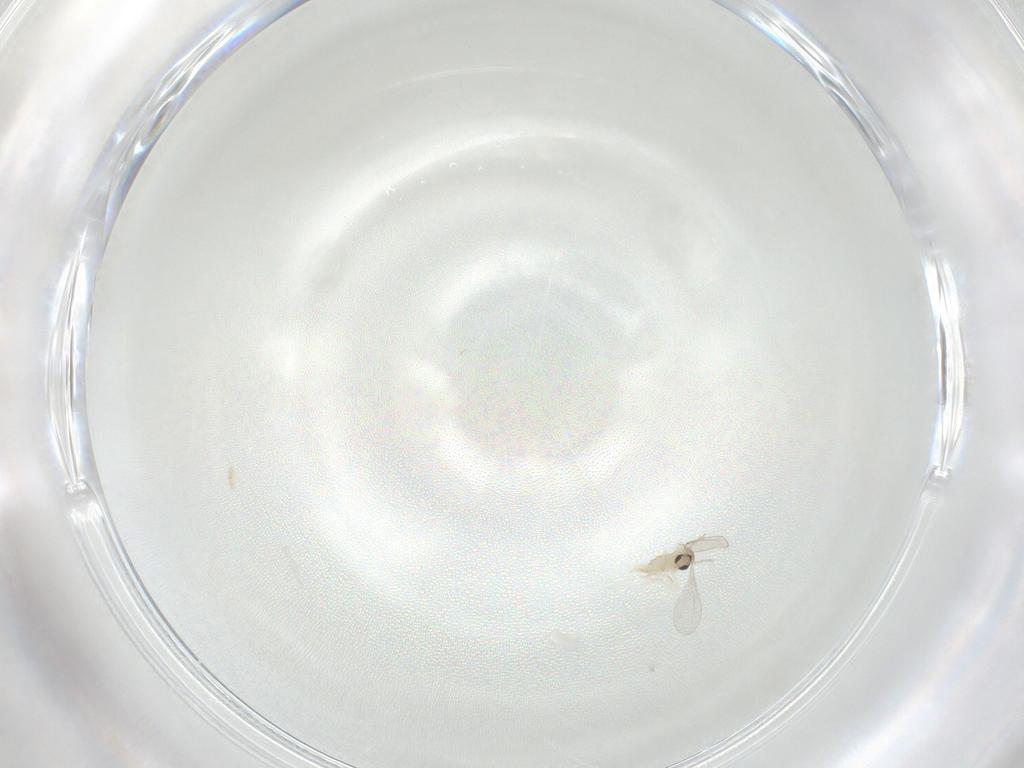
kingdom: Animalia
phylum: Arthropoda
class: Insecta
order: Diptera
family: Cecidomyiidae
